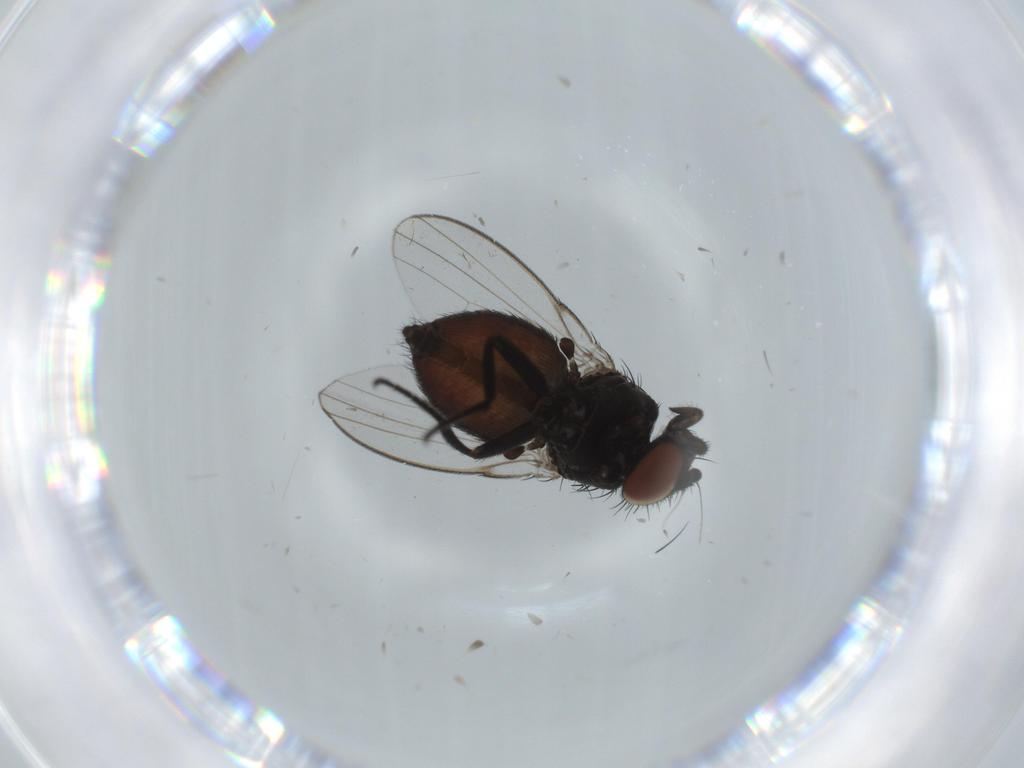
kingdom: Animalia
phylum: Arthropoda
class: Insecta
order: Diptera
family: Milichiidae
